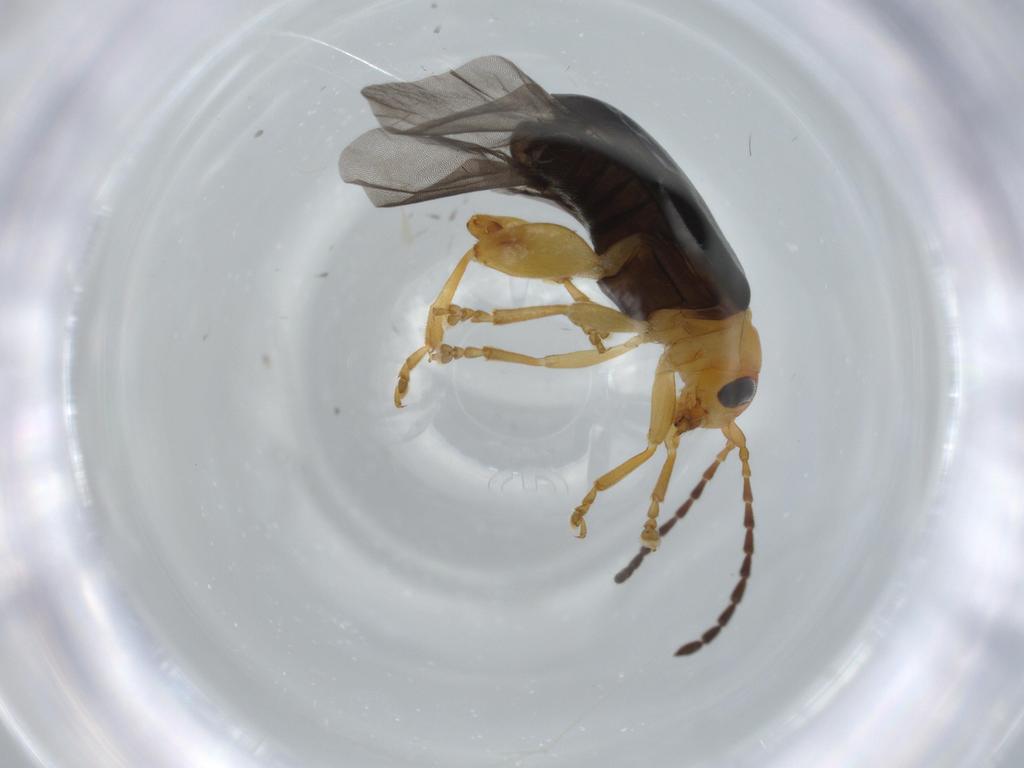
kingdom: Animalia
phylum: Arthropoda
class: Insecta
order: Coleoptera
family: Chrysomelidae
